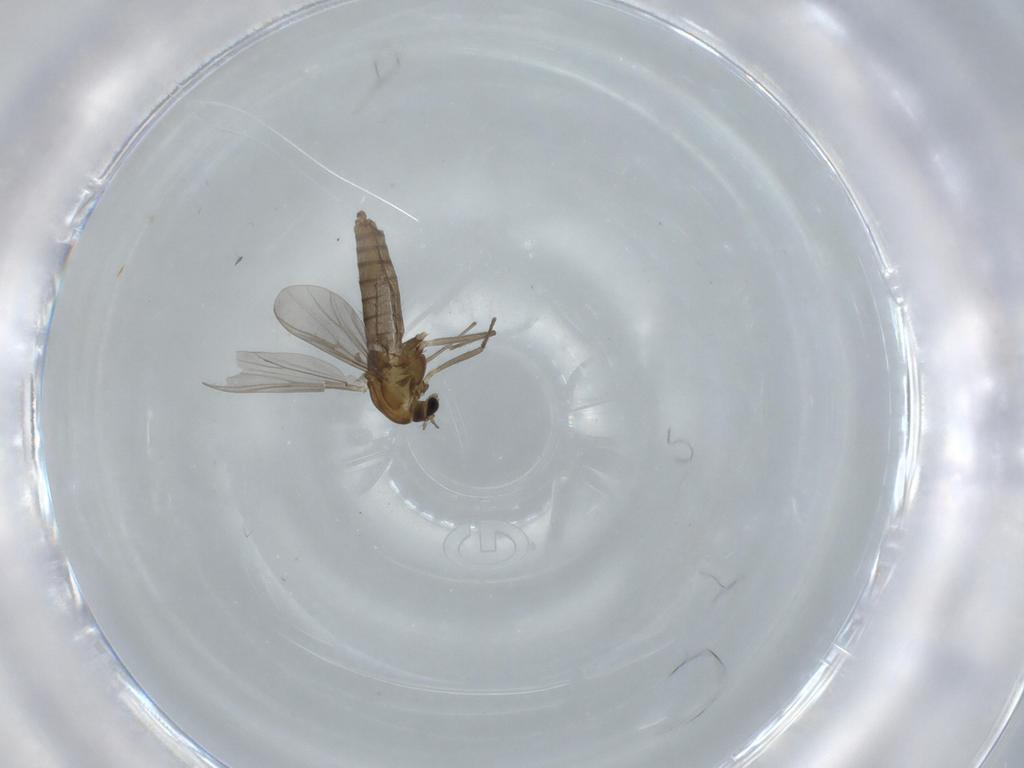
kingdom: Animalia
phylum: Arthropoda
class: Insecta
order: Diptera
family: Chironomidae
